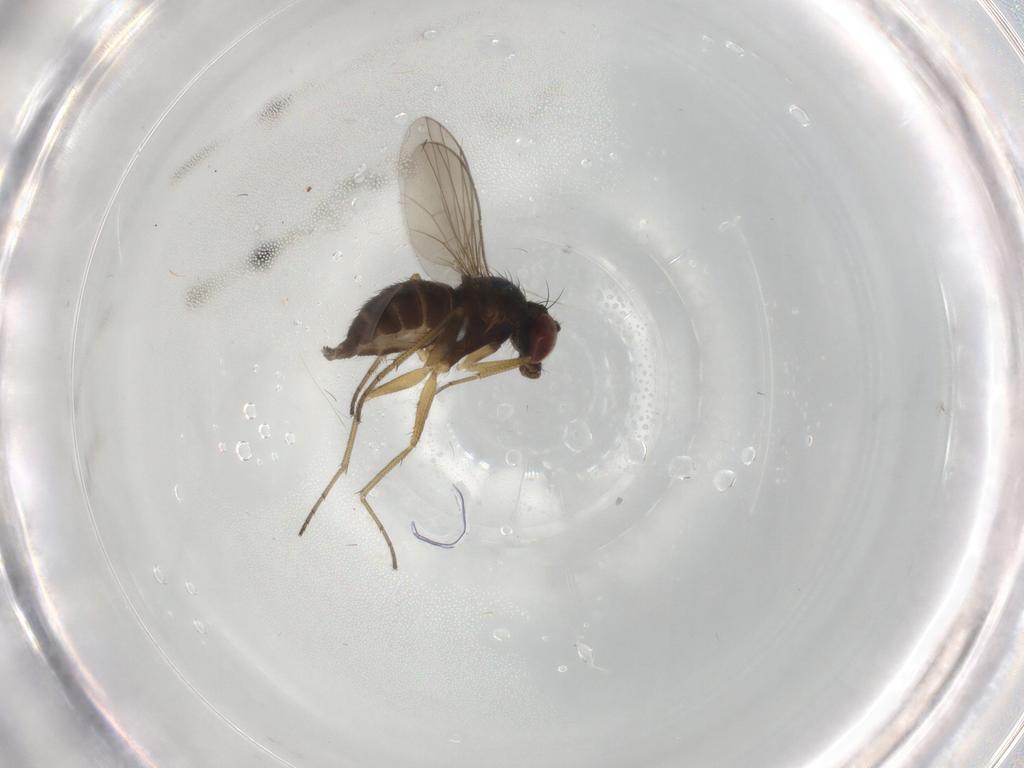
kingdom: Animalia
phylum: Arthropoda
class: Insecta
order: Diptera
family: Dolichopodidae
